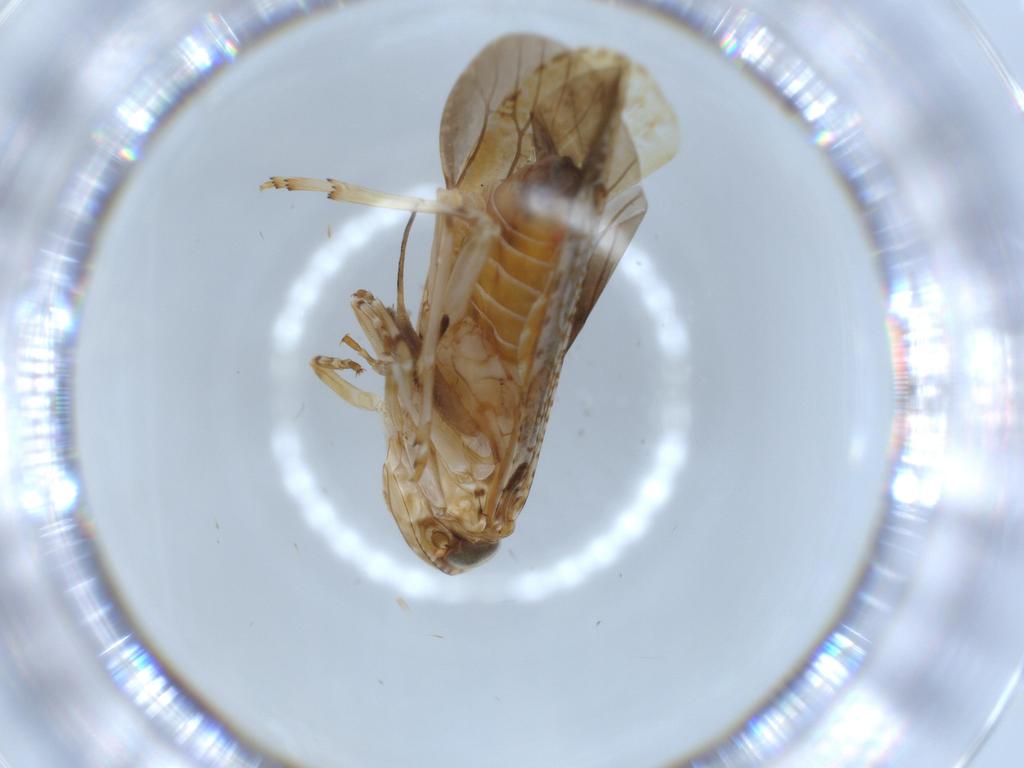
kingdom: Animalia
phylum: Arthropoda
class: Insecta
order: Hemiptera
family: Achilidae
